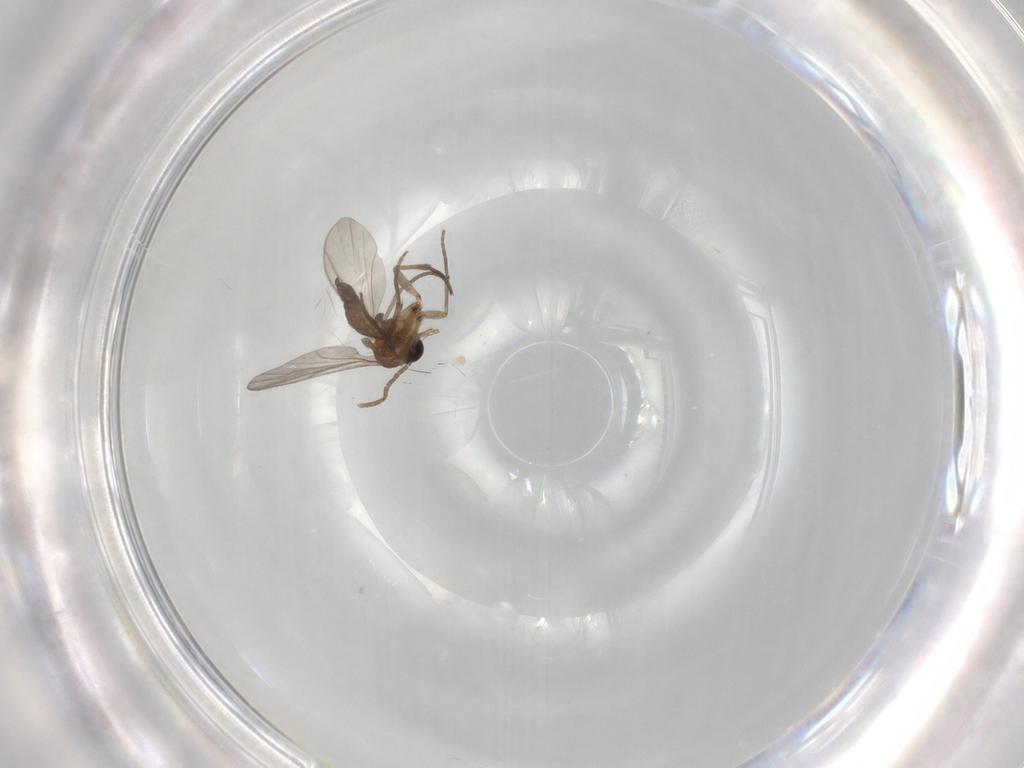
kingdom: Animalia
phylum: Arthropoda
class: Insecta
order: Diptera
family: Sciaridae
